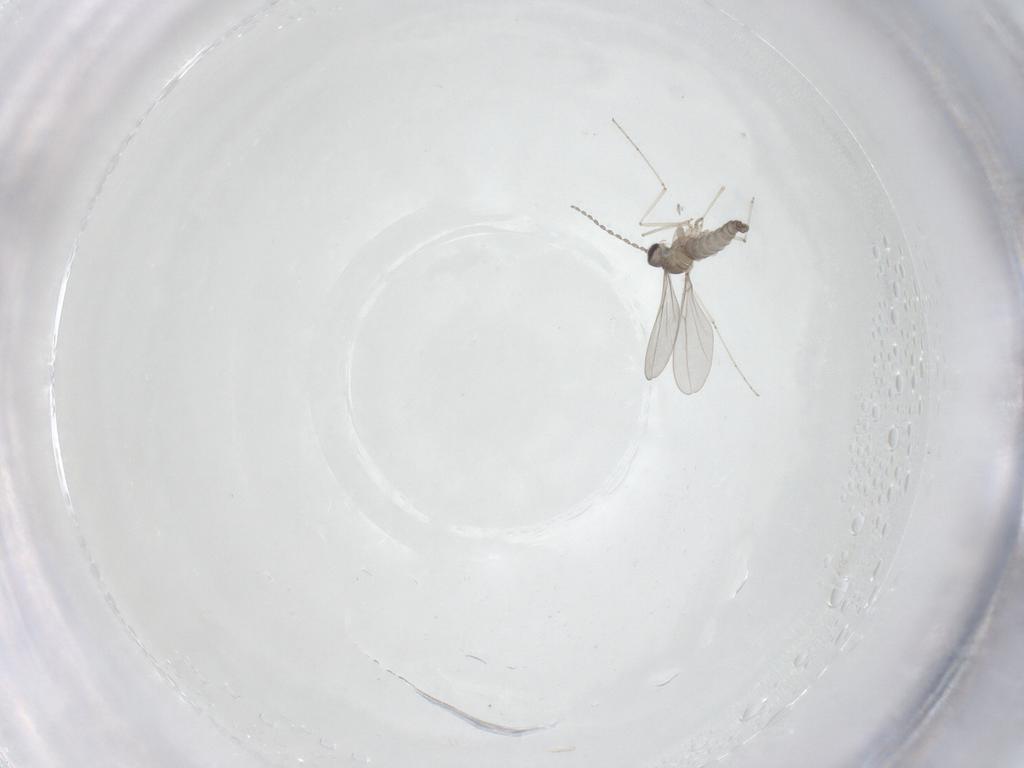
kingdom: Animalia
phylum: Arthropoda
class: Insecta
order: Diptera
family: Cecidomyiidae
